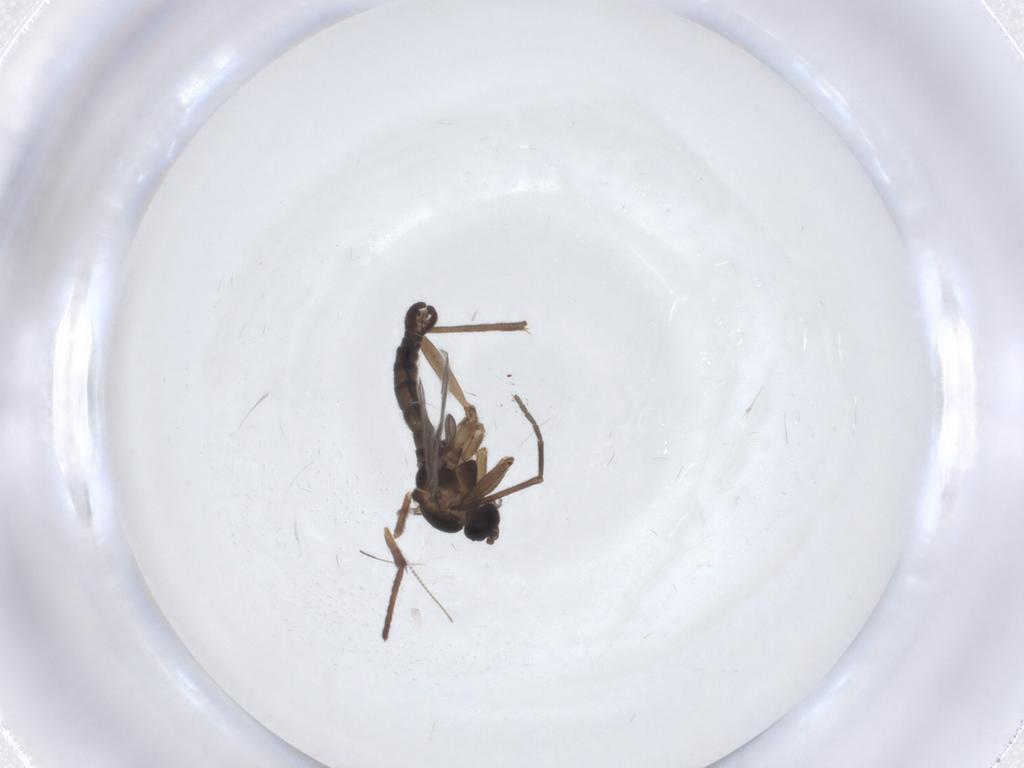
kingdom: Animalia
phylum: Arthropoda
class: Insecta
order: Diptera
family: Sciaridae
